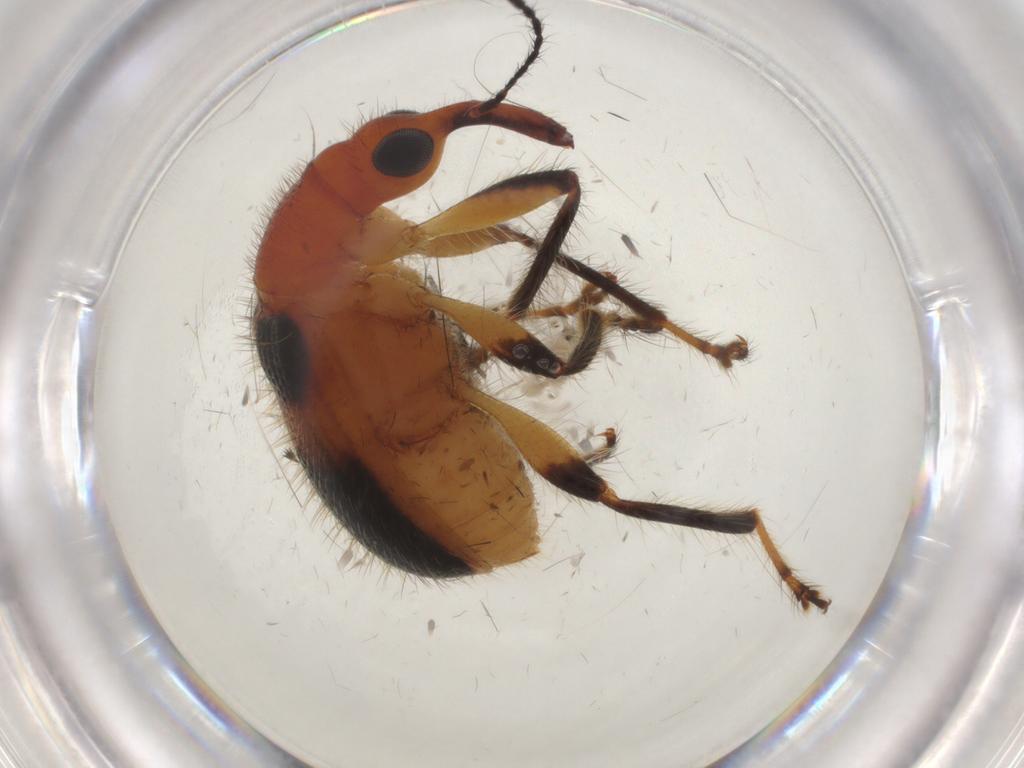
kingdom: Animalia
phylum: Arthropoda
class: Insecta
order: Coleoptera
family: Attelabidae
